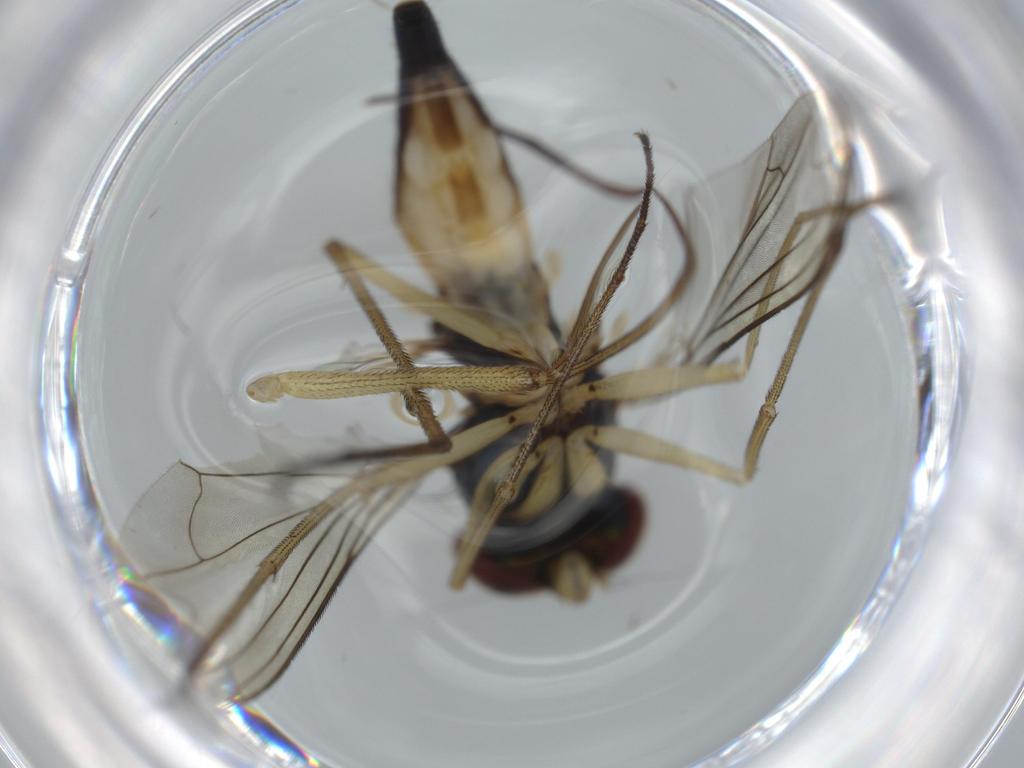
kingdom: Animalia
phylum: Arthropoda
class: Insecta
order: Diptera
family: Dolichopodidae
